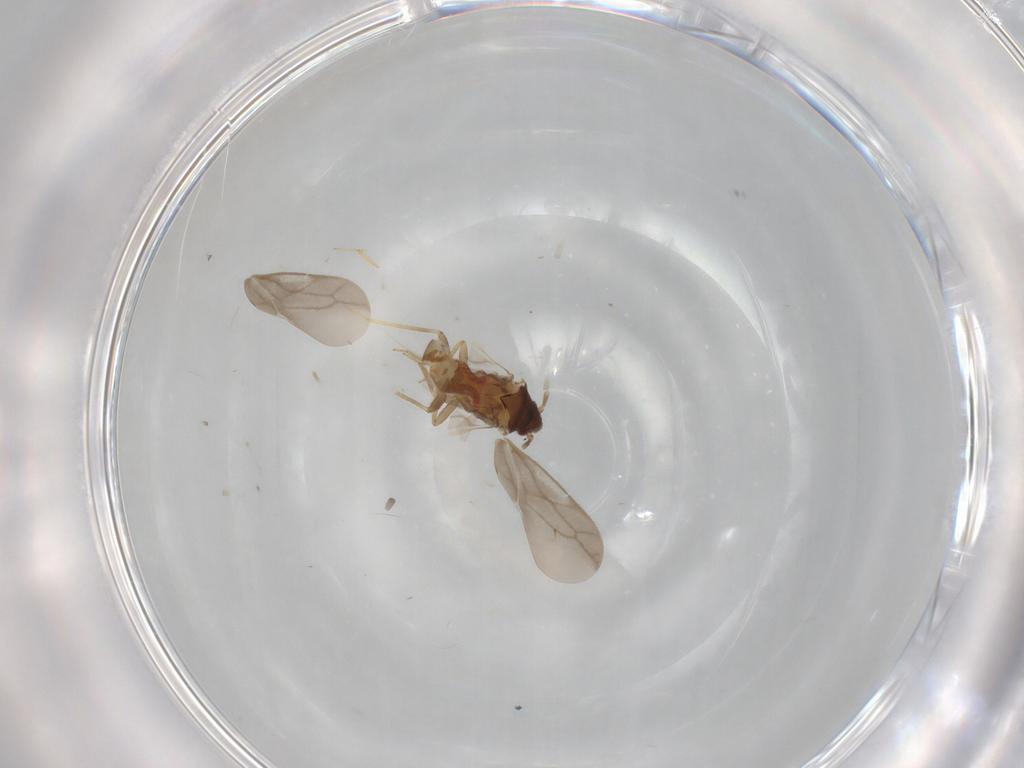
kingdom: Animalia
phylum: Arthropoda
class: Insecta
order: Hemiptera
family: Ceratocombidae
